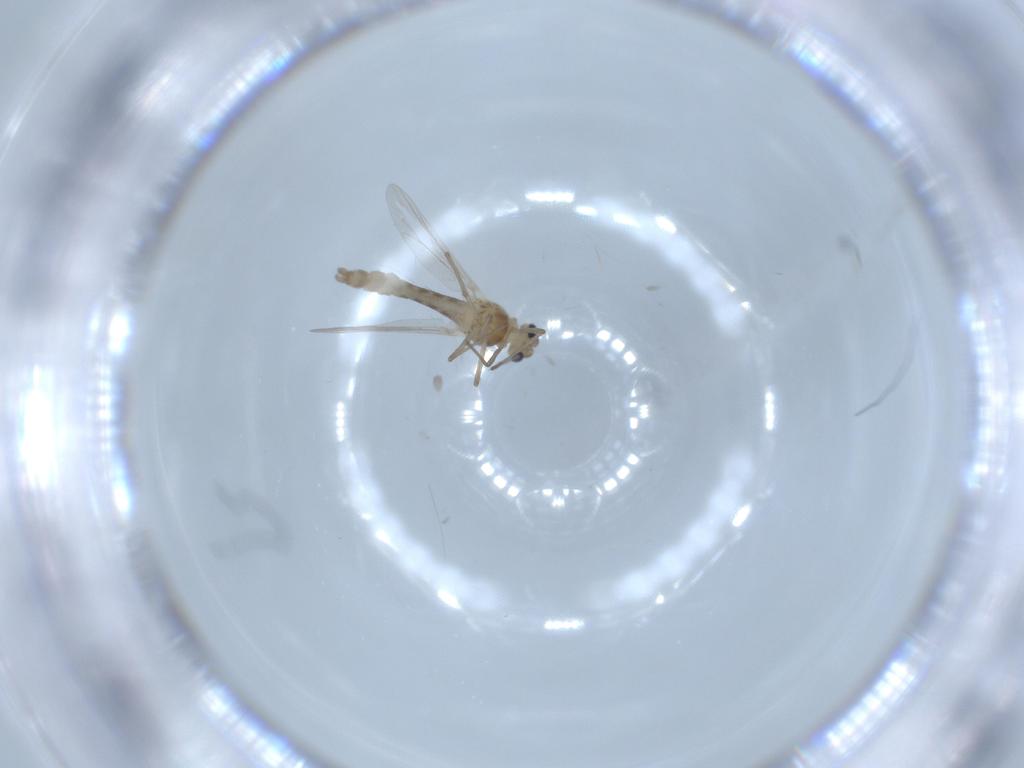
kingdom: Animalia
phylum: Arthropoda
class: Insecta
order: Diptera
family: Chironomidae
